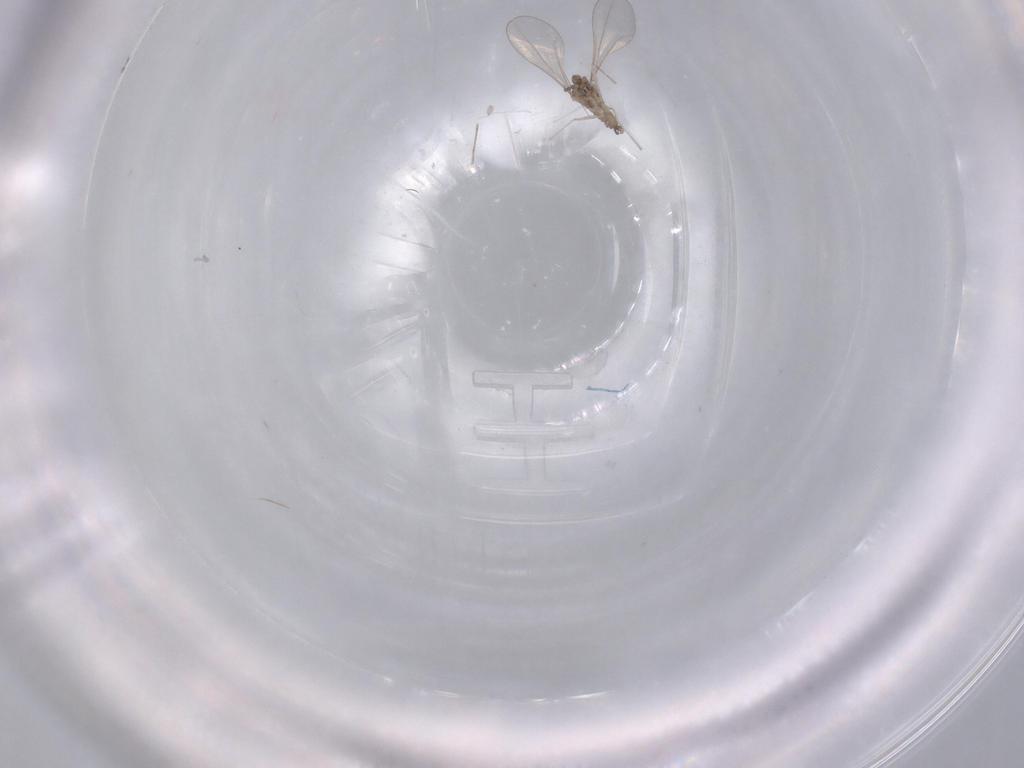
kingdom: Animalia
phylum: Arthropoda
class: Insecta
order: Diptera
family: Cecidomyiidae
